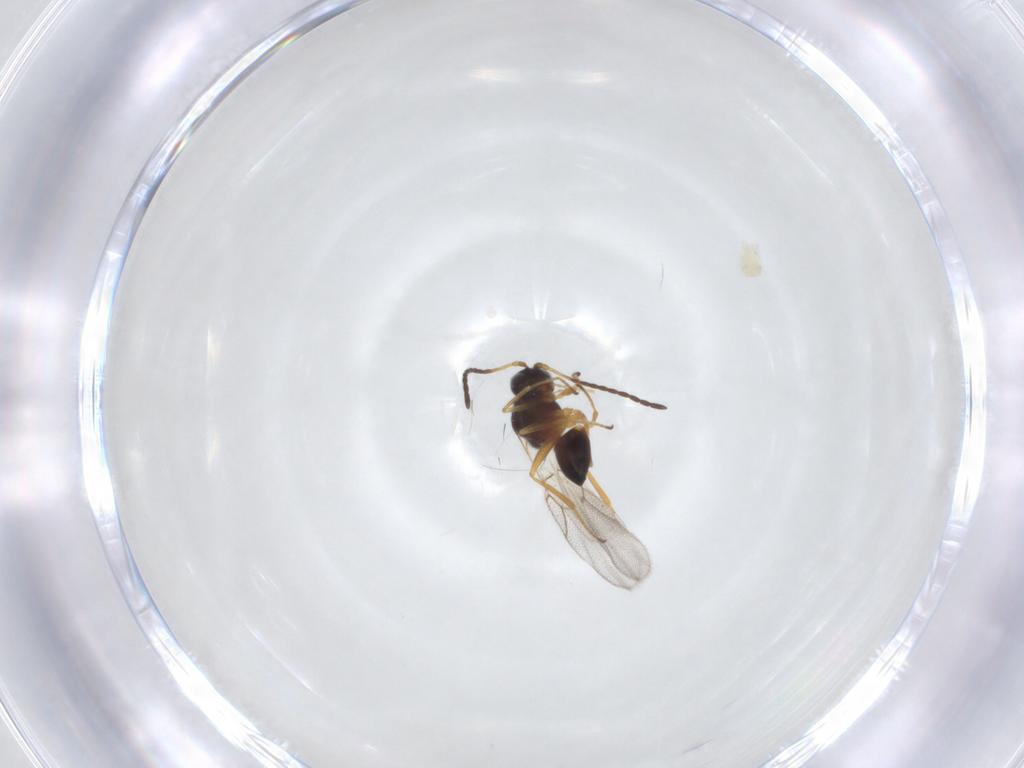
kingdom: Animalia
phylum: Arthropoda
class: Insecta
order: Hymenoptera
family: Figitidae
